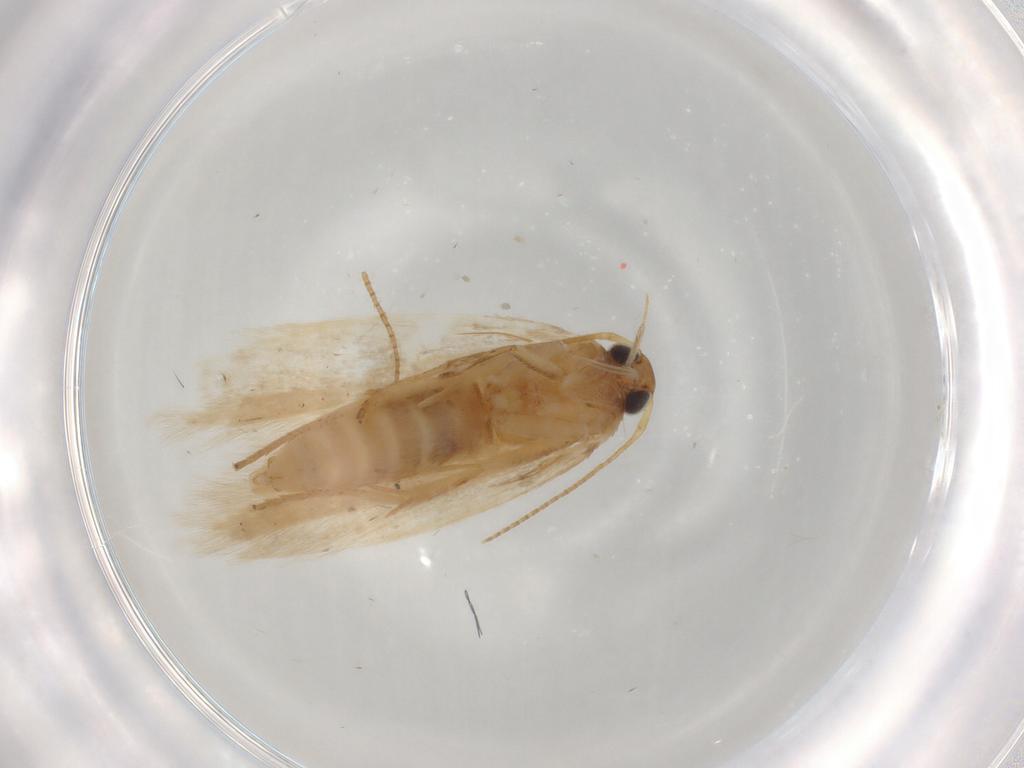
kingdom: Animalia
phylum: Arthropoda
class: Insecta
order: Lepidoptera
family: Gelechiidae
